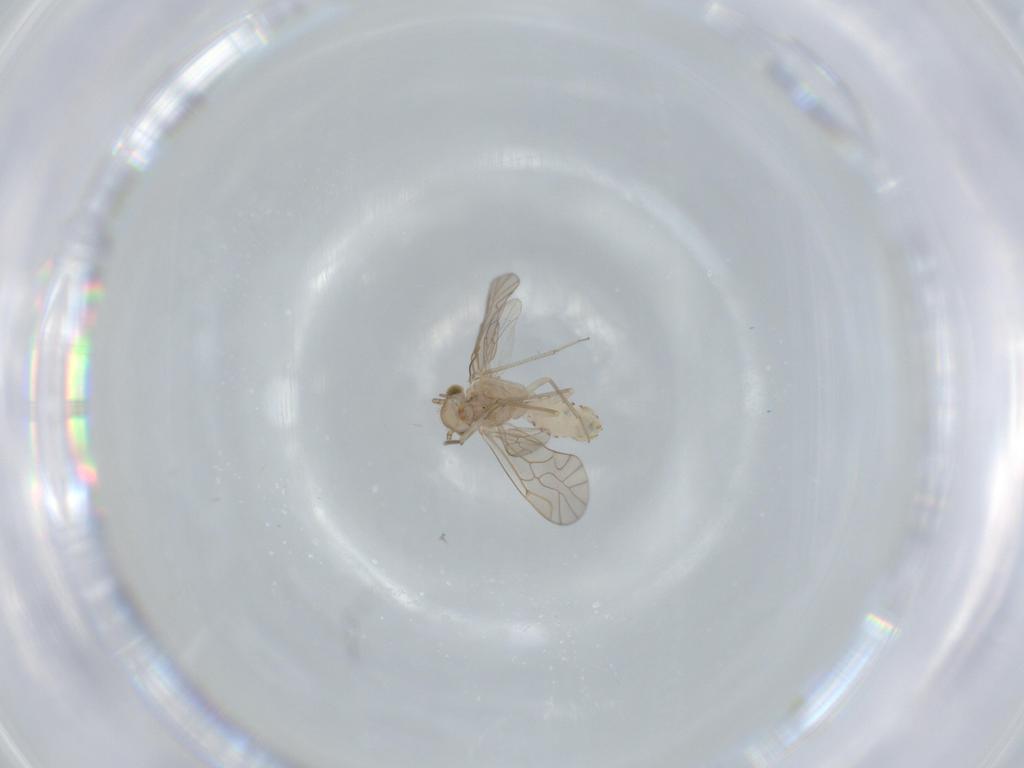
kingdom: Animalia
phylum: Arthropoda
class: Insecta
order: Psocodea
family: Lachesillidae
